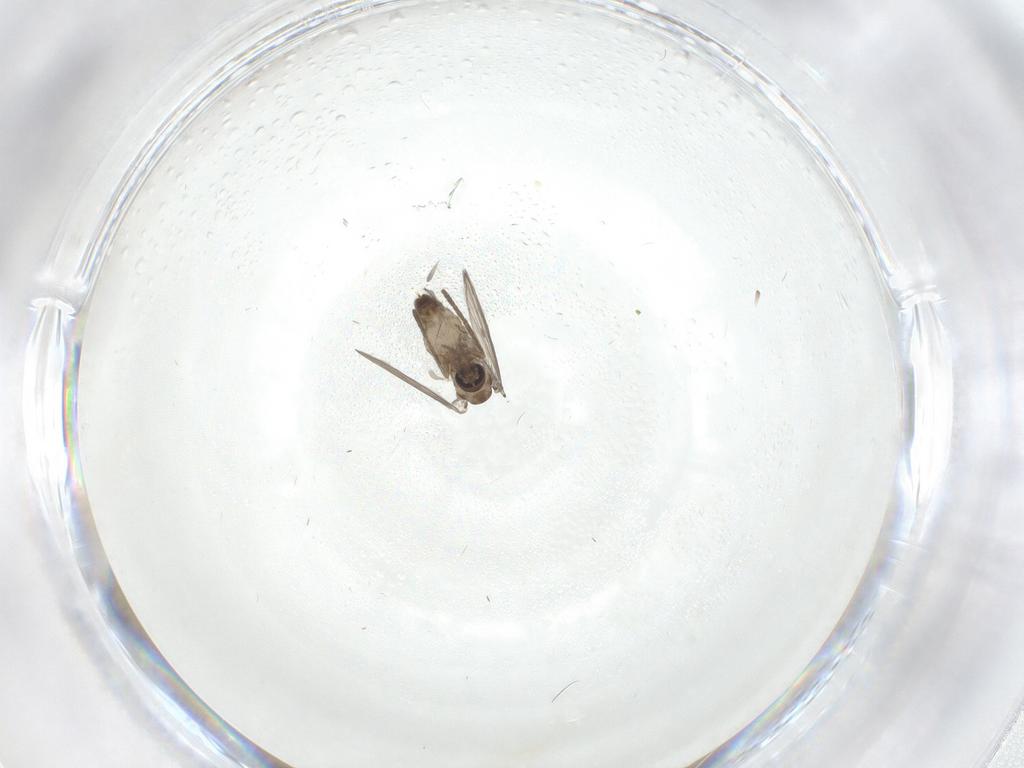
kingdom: Animalia
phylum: Arthropoda
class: Insecta
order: Diptera
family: Psychodidae
